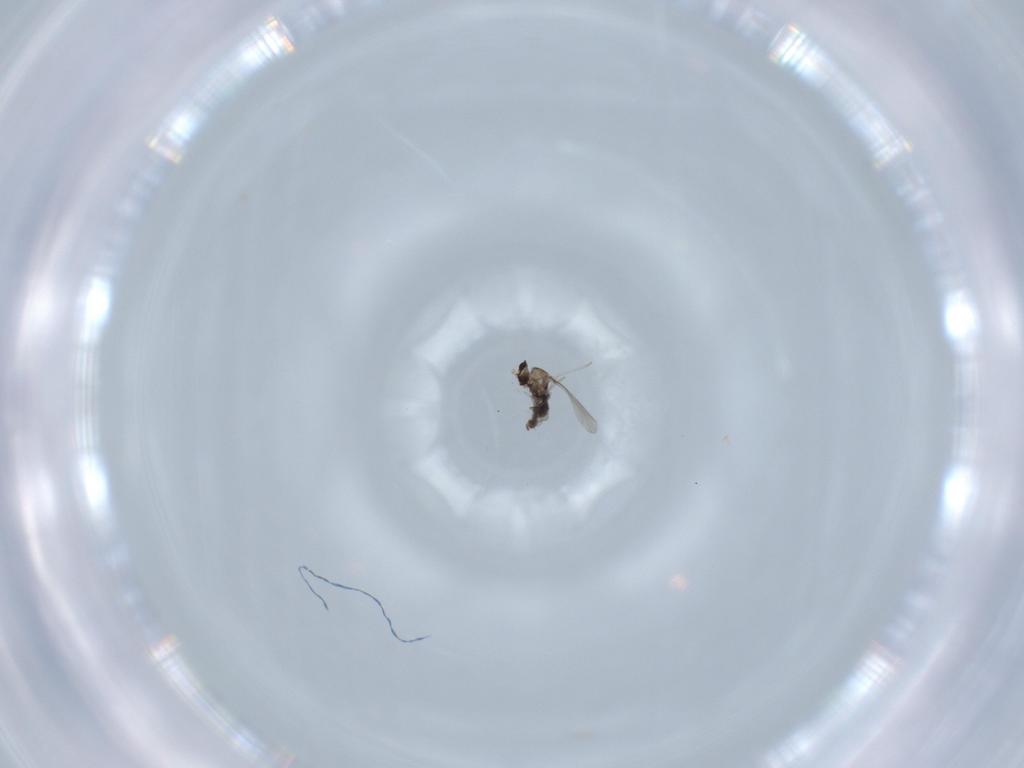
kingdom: Animalia
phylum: Arthropoda
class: Insecta
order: Diptera
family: Cecidomyiidae
